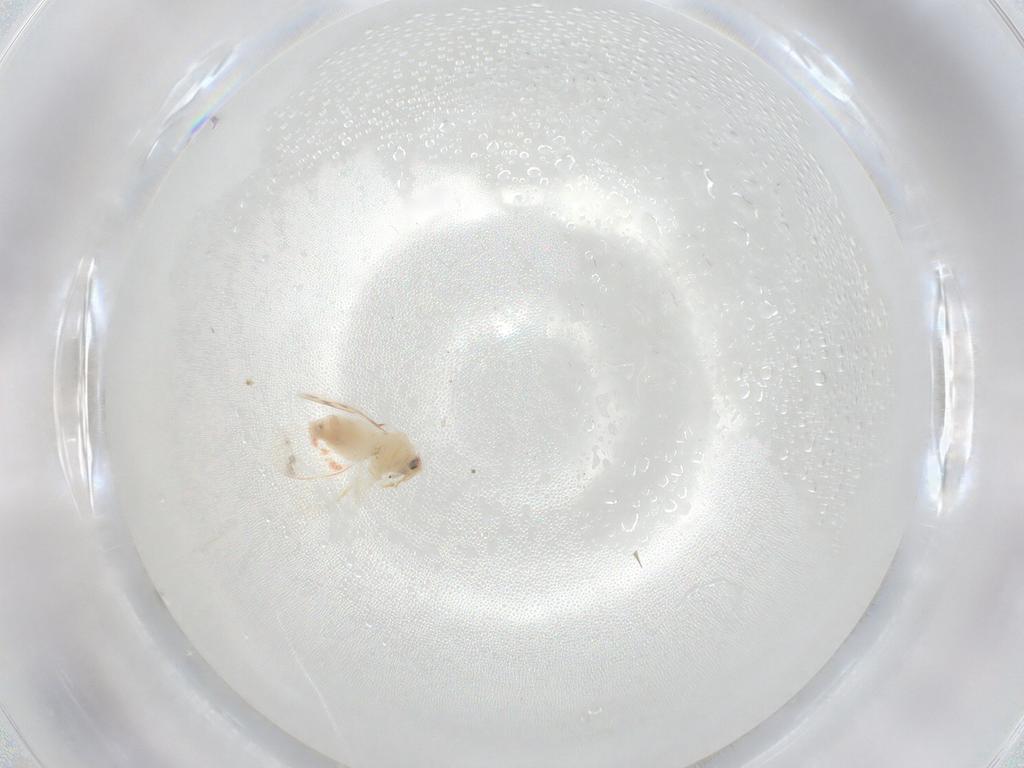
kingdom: Animalia
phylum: Arthropoda
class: Insecta
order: Hemiptera
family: Aleyrodidae
